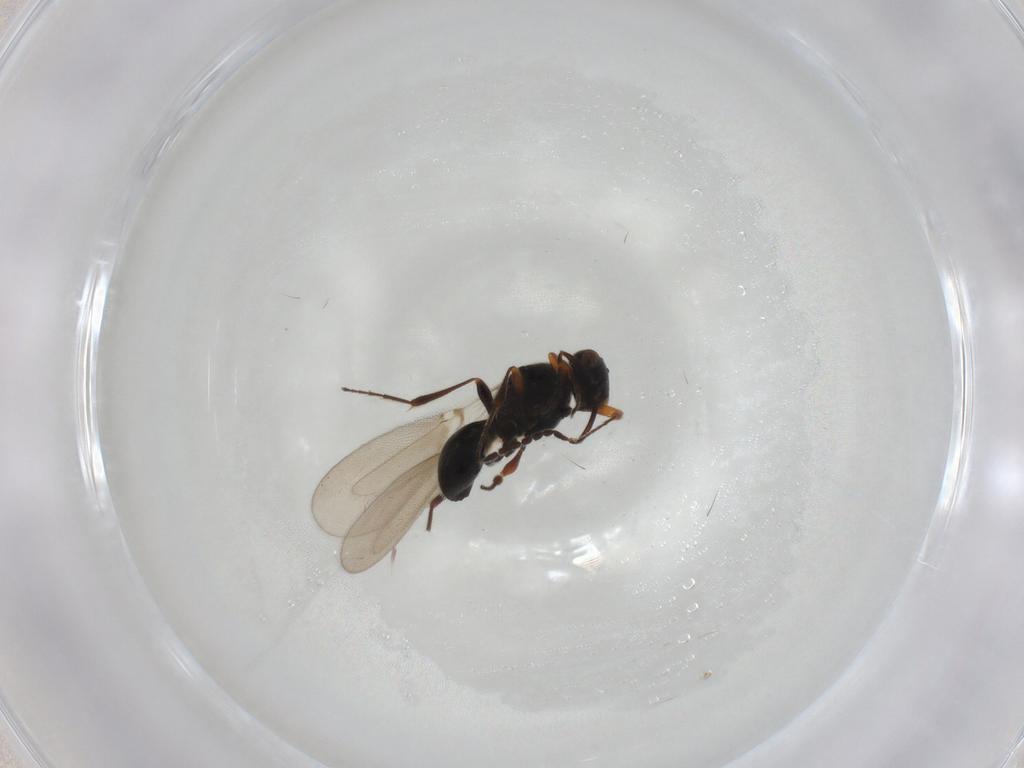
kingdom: Animalia
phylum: Arthropoda
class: Insecta
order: Hymenoptera
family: Platygastridae
